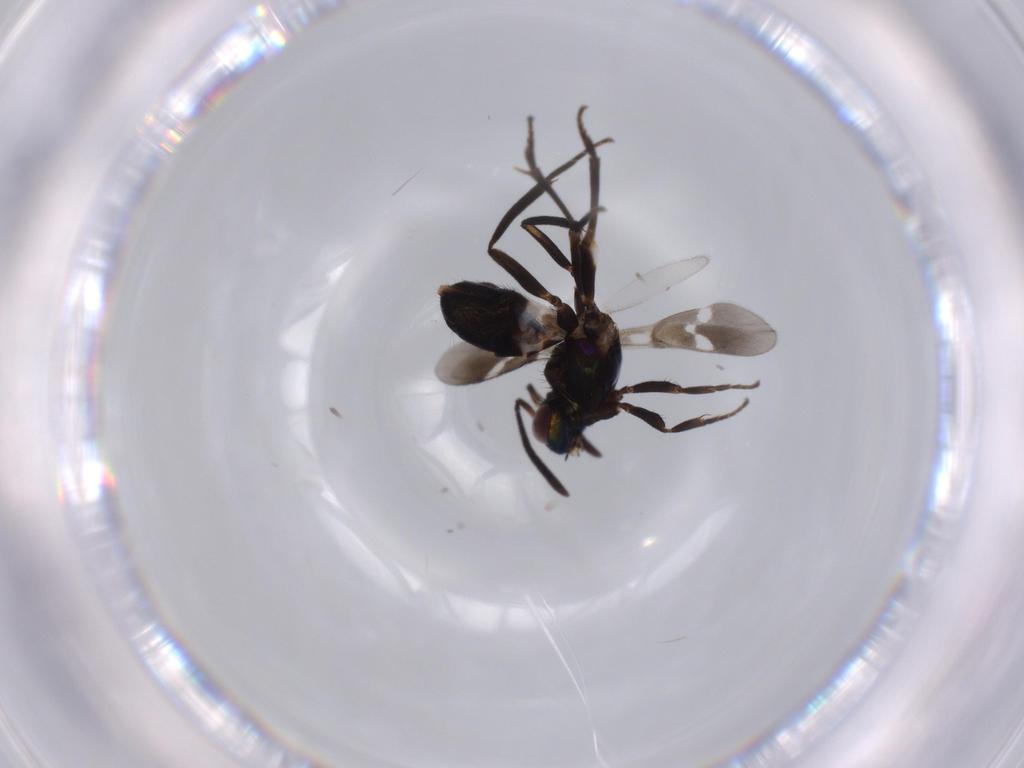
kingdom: Animalia
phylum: Arthropoda
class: Insecta
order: Hymenoptera
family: Eupelmidae
